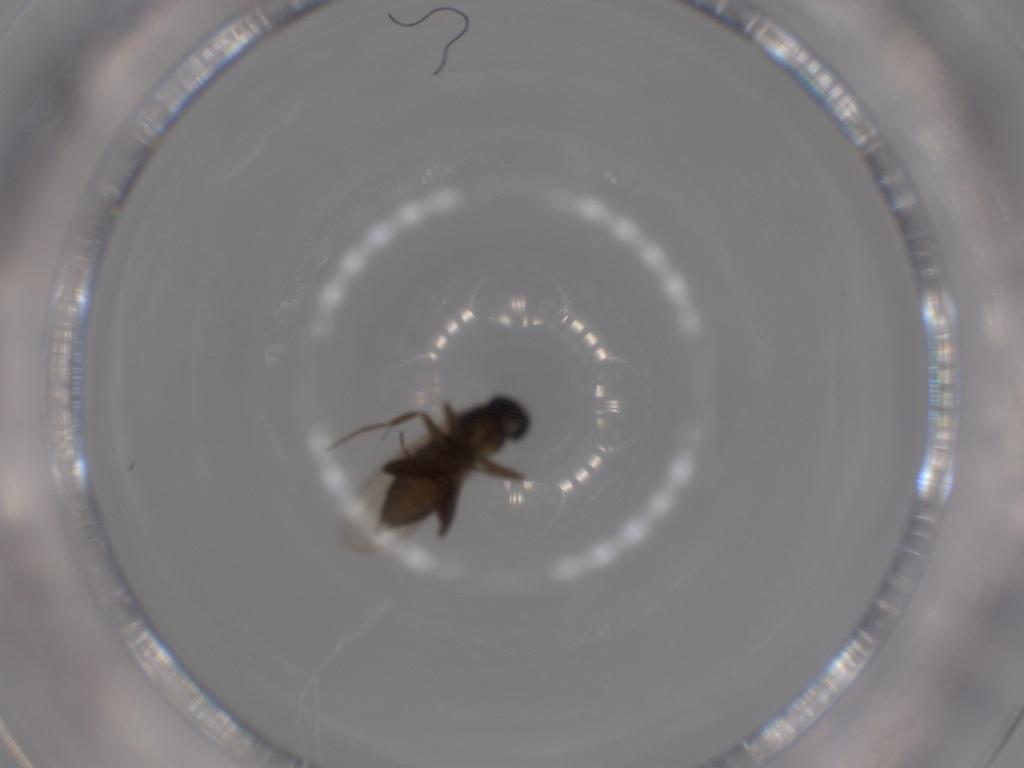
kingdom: Animalia
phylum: Arthropoda
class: Insecta
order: Diptera
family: Phoridae
